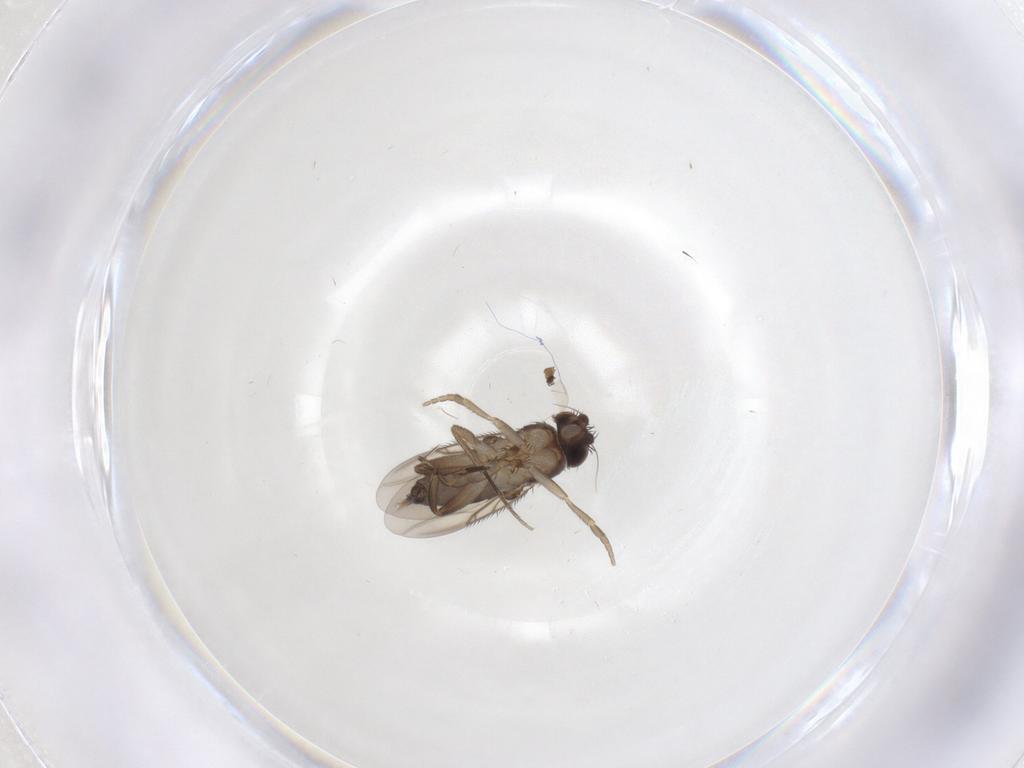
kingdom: Animalia
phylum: Arthropoda
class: Insecta
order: Diptera
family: Phoridae
